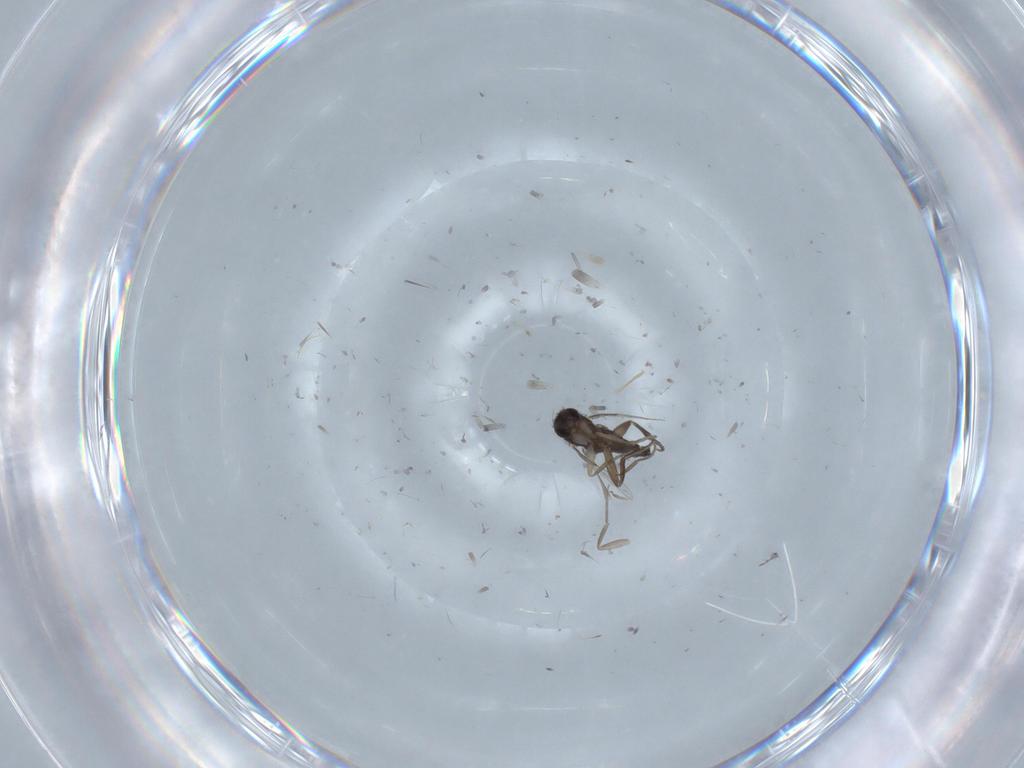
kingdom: Animalia
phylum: Arthropoda
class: Insecta
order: Diptera
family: Chironomidae
